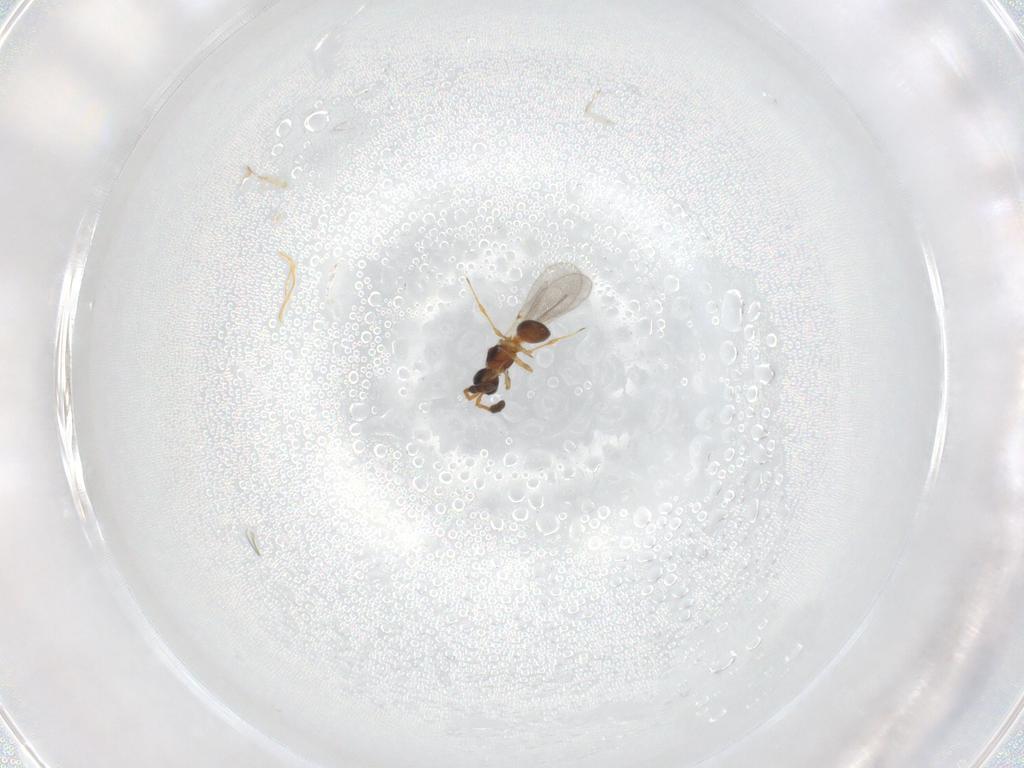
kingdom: Animalia
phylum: Arthropoda
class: Insecta
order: Hymenoptera
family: Diapriidae
